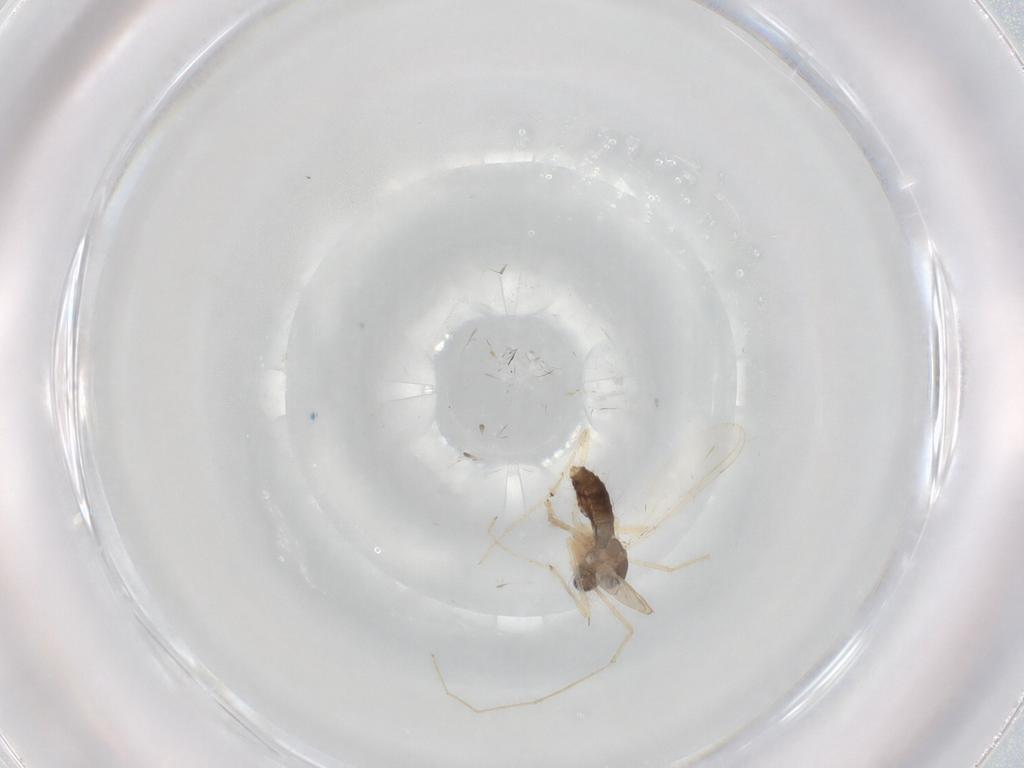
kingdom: Animalia
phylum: Arthropoda
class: Insecta
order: Diptera
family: Chironomidae
